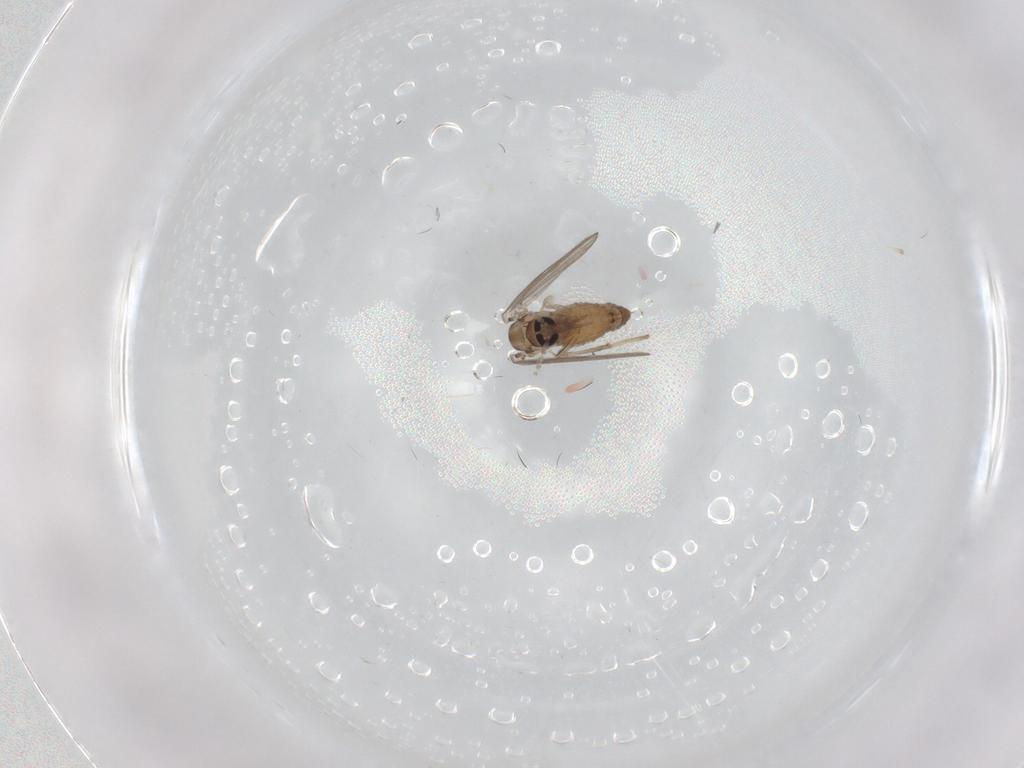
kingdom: Animalia
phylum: Arthropoda
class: Insecta
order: Diptera
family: Psychodidae
